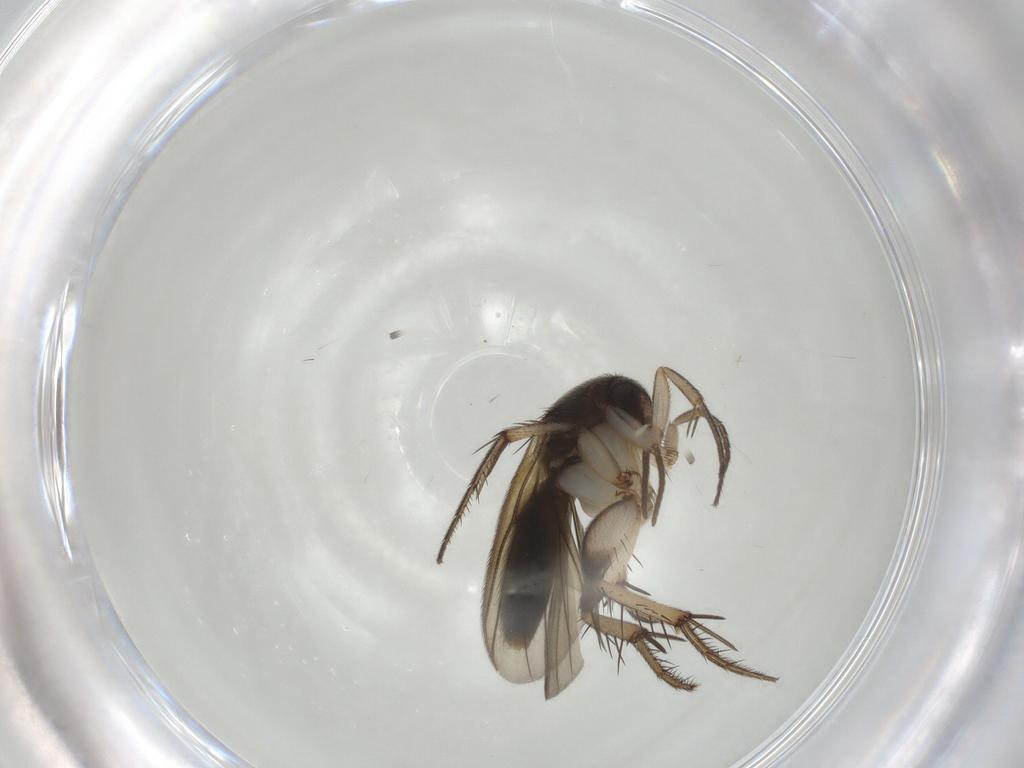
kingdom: Animalia
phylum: Arthropoda
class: Insecta
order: Diptera
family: Mycetophilidae
